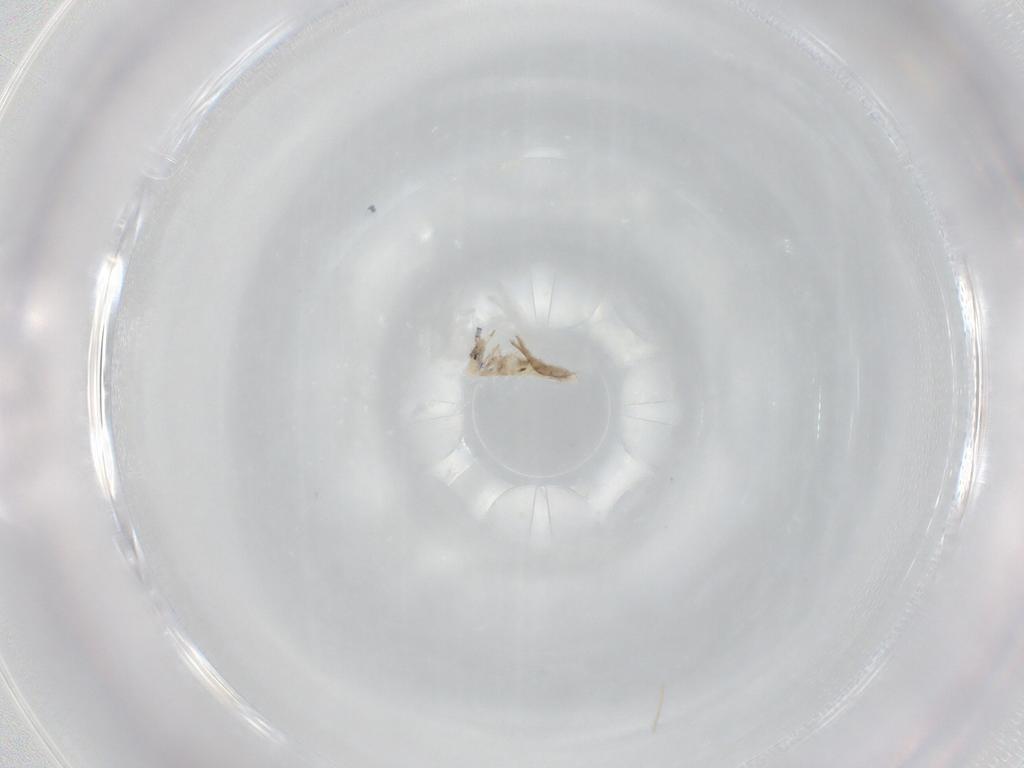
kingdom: Animalia
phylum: Arthropoda
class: Collembola
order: Entomobryomorpha
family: Entomobryidae
